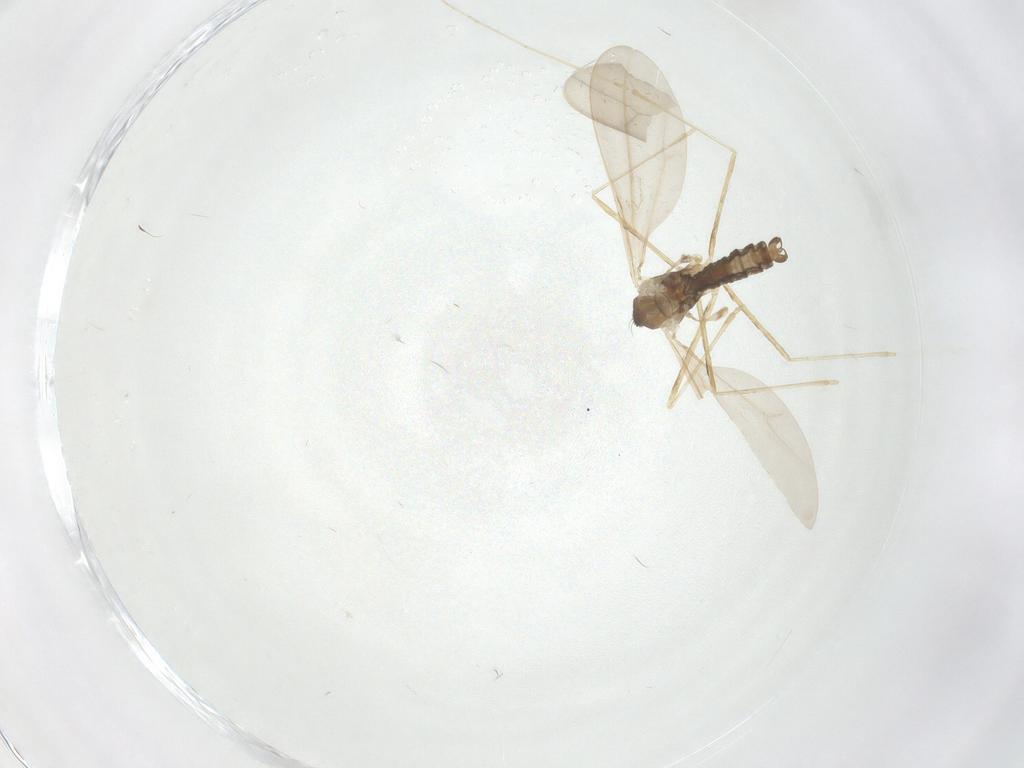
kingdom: Animalia
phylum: Arthropoda
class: Insecta
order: Diptera
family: Cecidomyiidae
